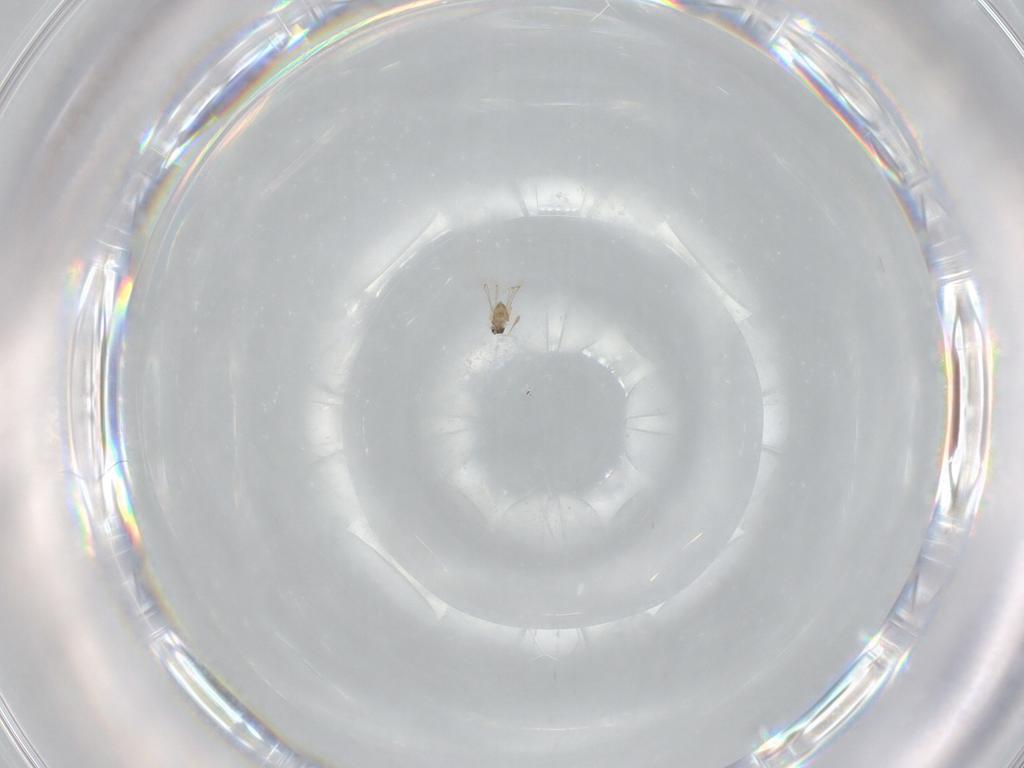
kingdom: Animalia
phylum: Arthropoda
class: Insecta
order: Hymenoptera
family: Mymaridae
